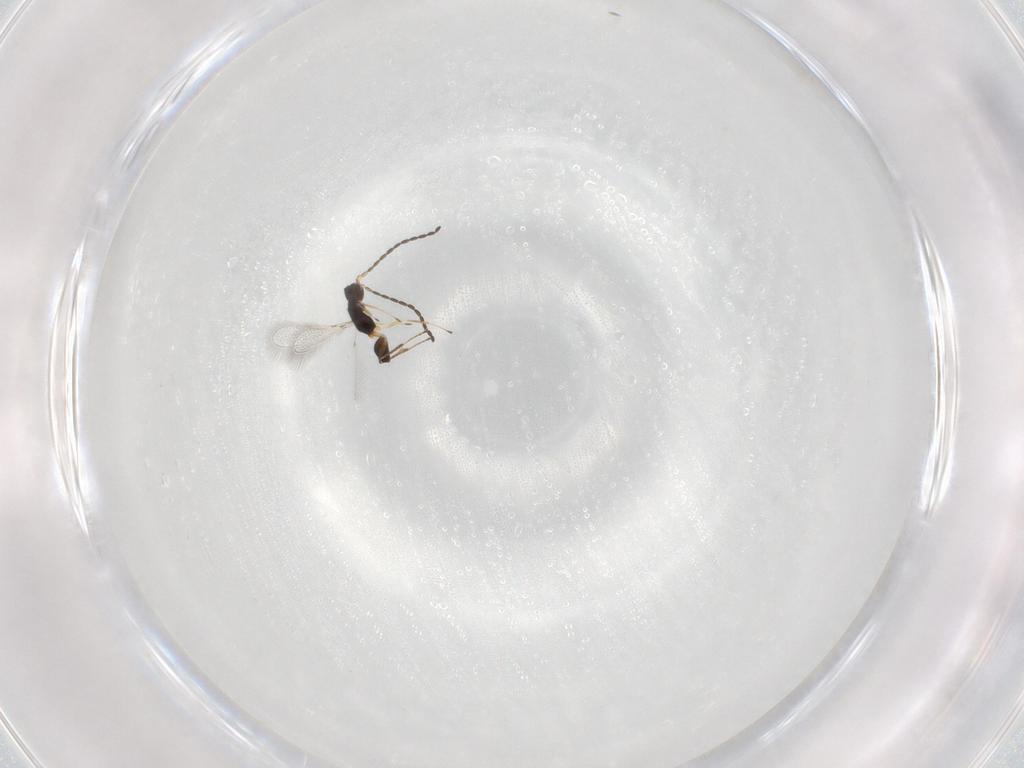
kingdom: Animalia
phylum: Arthropoda
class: Insecta
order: Hymenoptera
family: Mymaridae
